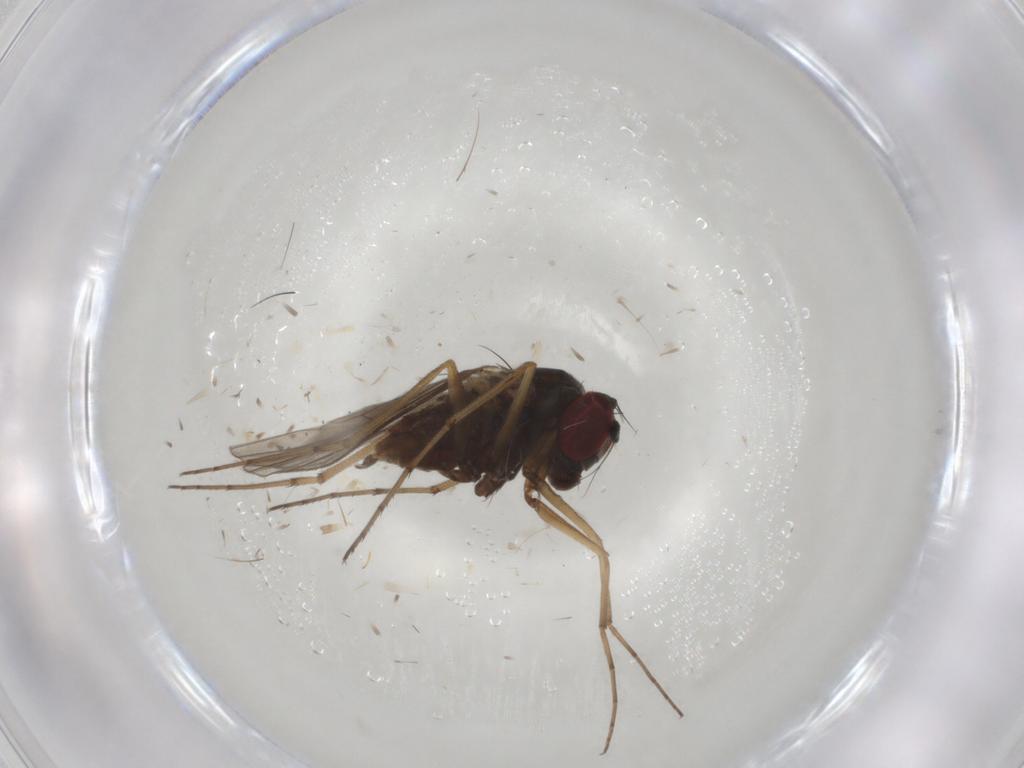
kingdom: Animalia
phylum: Arthropoda
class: Insecta
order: Diptera
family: Dolichopodidae
